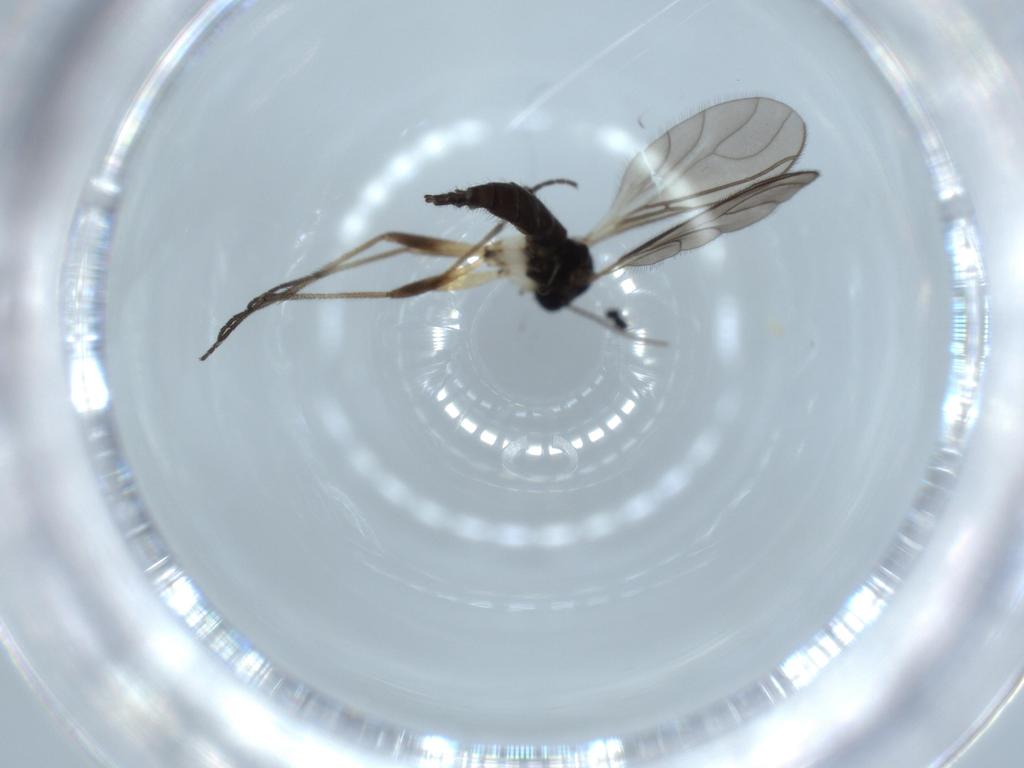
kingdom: Animalia
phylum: Arthropoda
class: Insecta
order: Diptera
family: Sciaridae
